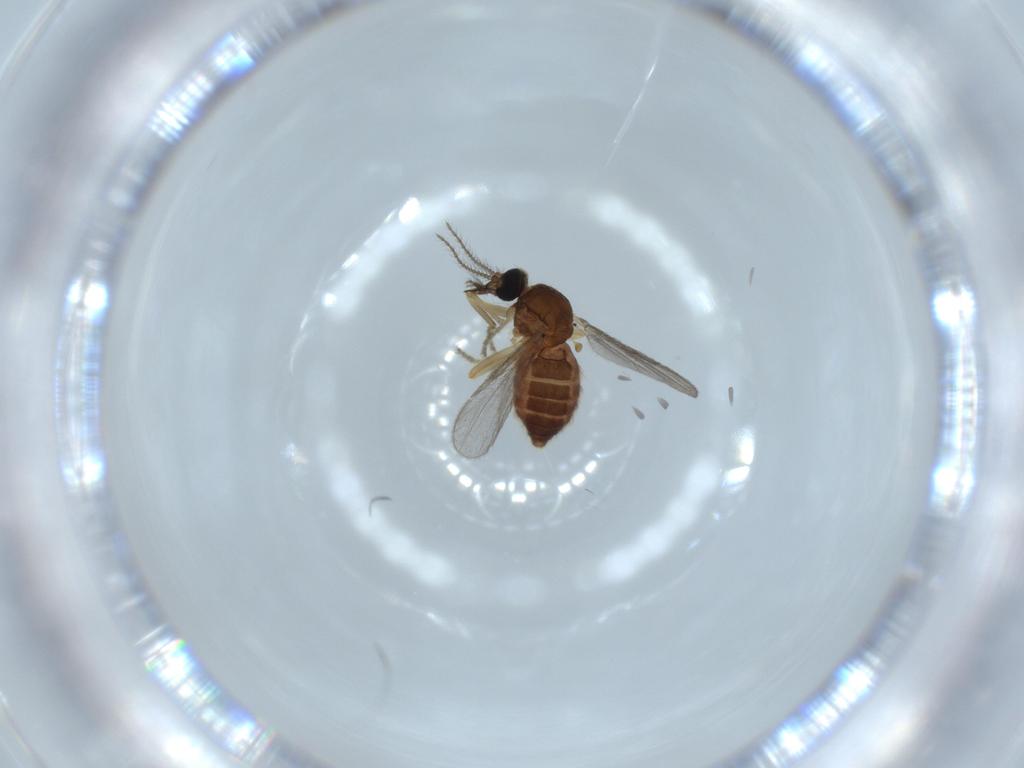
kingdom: Animalia
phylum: Arthropoda
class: Insecta
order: Diptera
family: Ceratopogonidae
